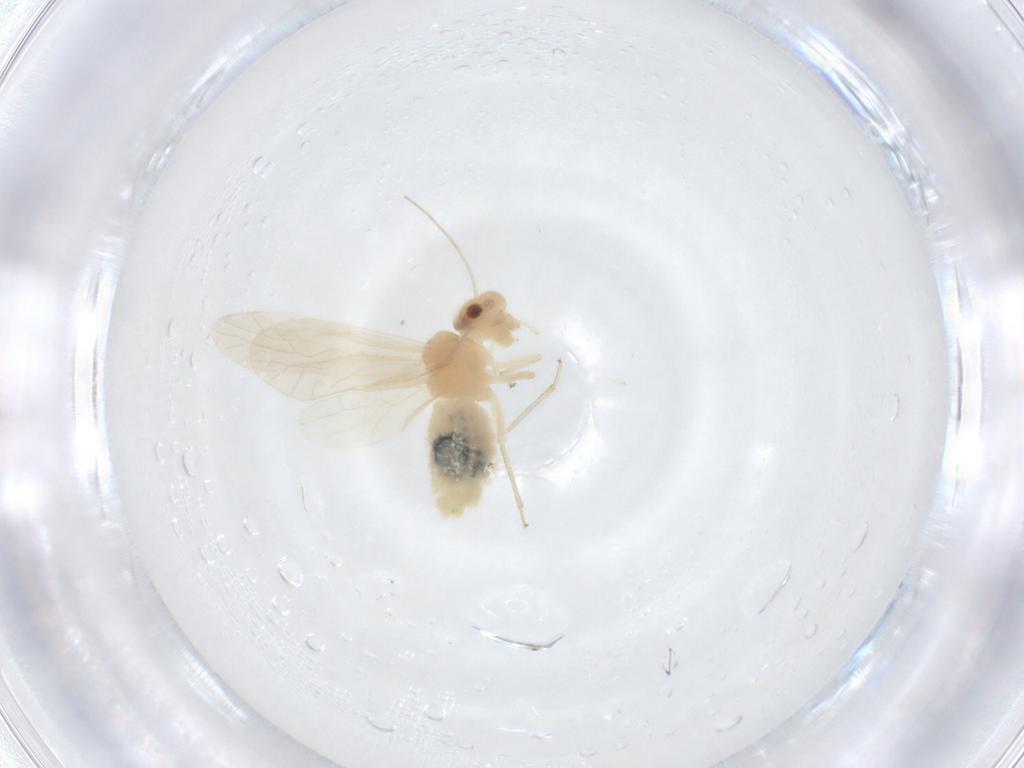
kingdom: Animalia
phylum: Arthropoda
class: Insecta
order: Psocodea
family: Caeciliusidae
